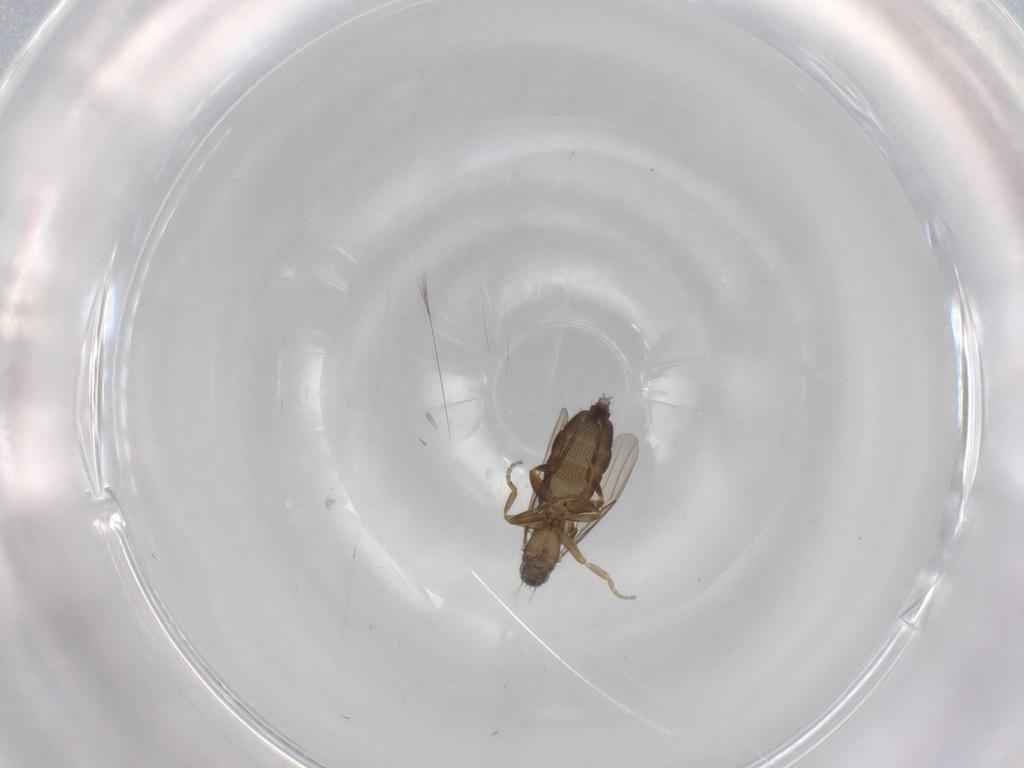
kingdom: Animalia
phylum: Arthropoda
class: Insecta
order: Diptera
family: Phoridae
